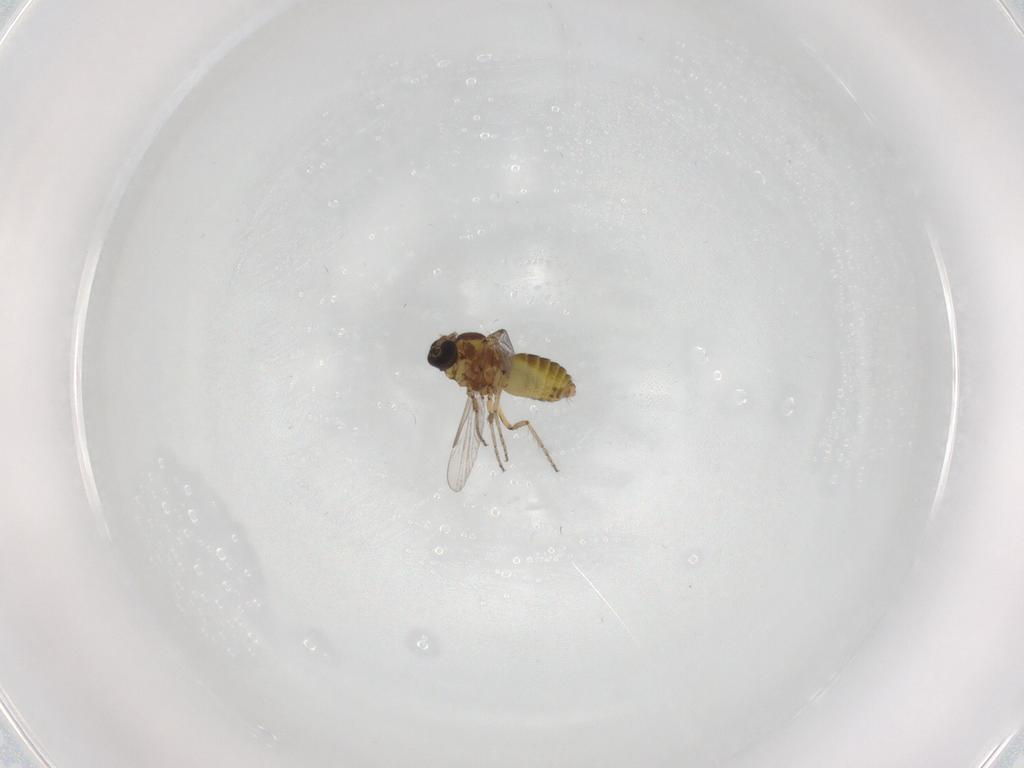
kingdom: Animalia
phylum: Arthropoda
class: Insecta
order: Diptera
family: Ceratopogonidae
